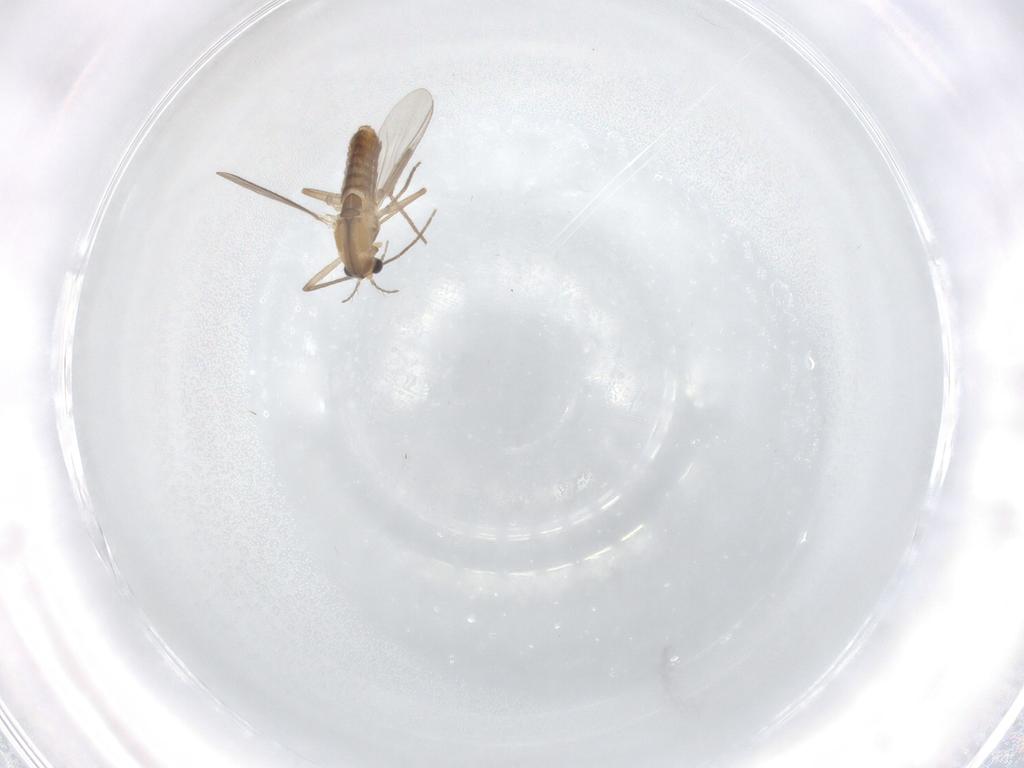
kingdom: Animalia
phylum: Arthropoda
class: Insecta
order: Diptera
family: Chironomidae
